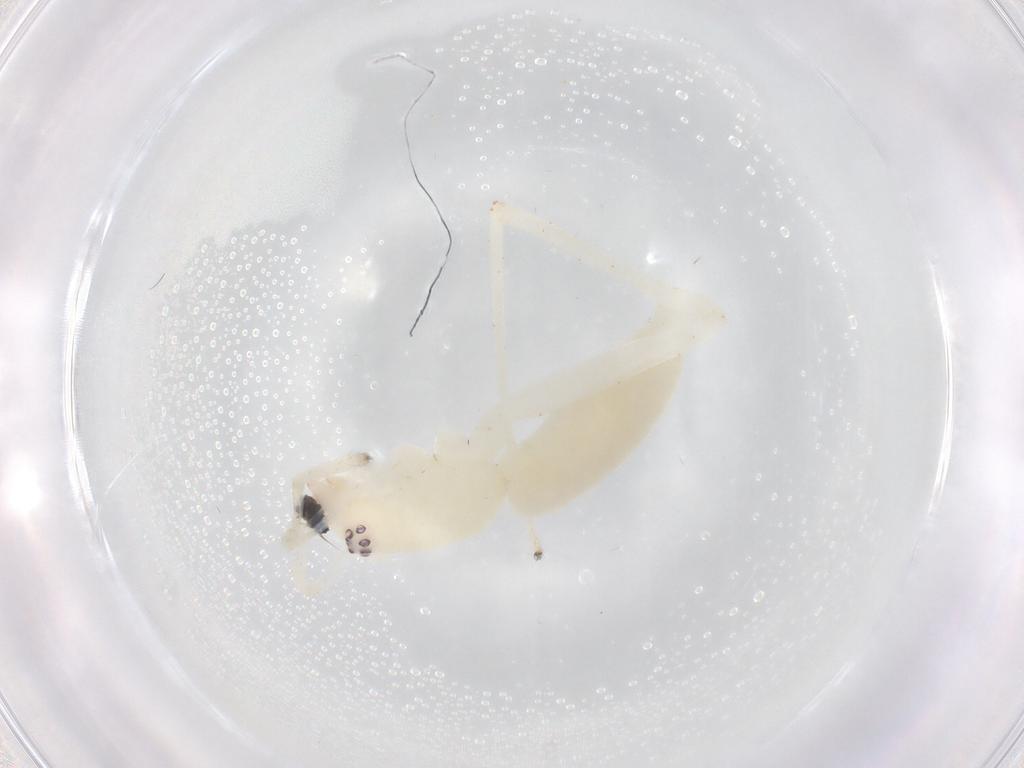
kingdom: Animalia
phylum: Arthropoda
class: Arachnida
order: Araneae
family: Anyphaenidae
